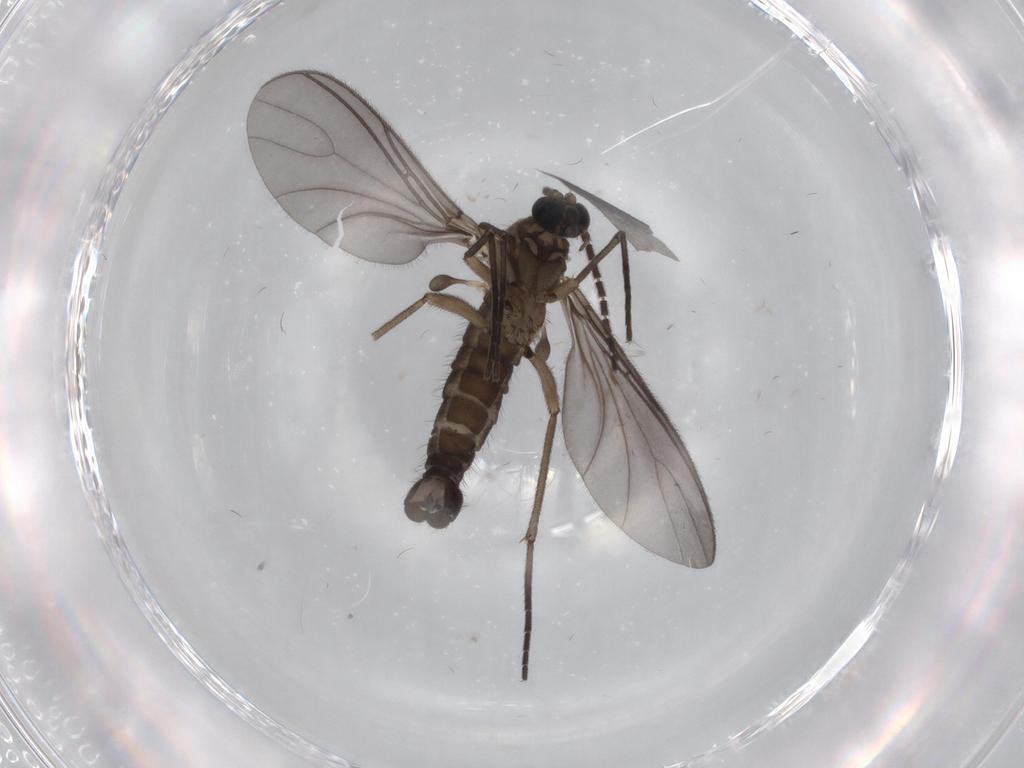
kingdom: Animalia
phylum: Arthropoda
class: Insecta
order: Diptera
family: Sciaridae
